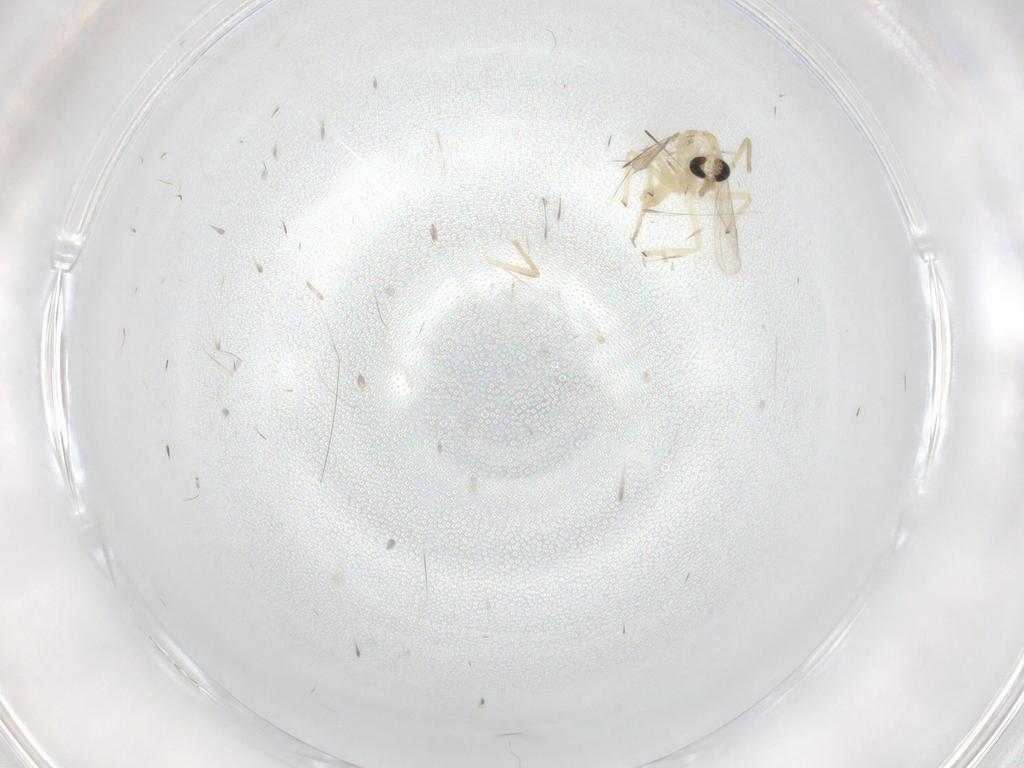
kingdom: Animalia
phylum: Arthropoda
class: Insecta
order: Diptera
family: Chironomidae
